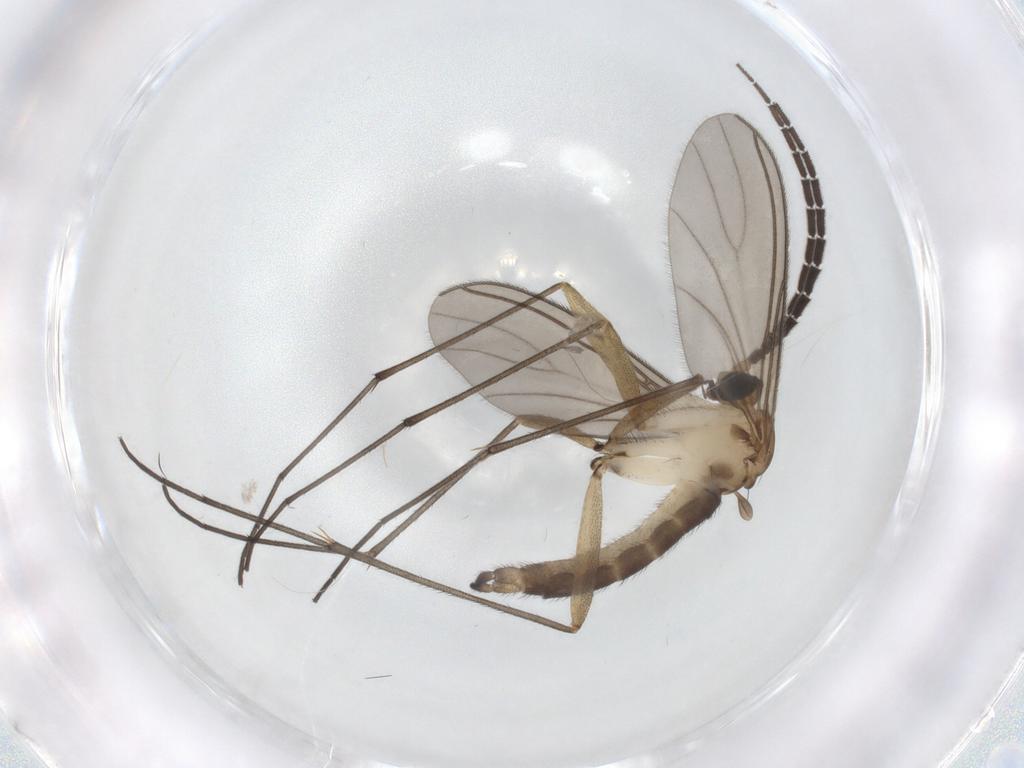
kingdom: Animalia
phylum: Arthropoda
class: Insecta
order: Diptera
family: Sciaridae
